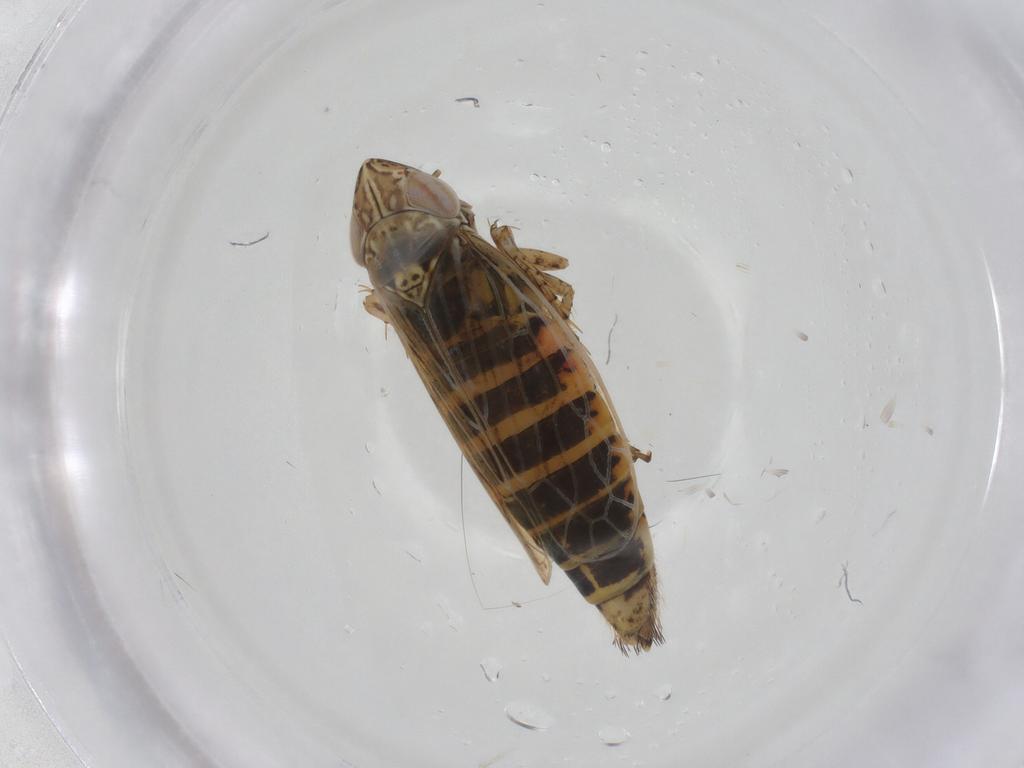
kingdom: Animalia
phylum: Arthropoda
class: Insecta
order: Hemiptera
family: Cicadellidae
